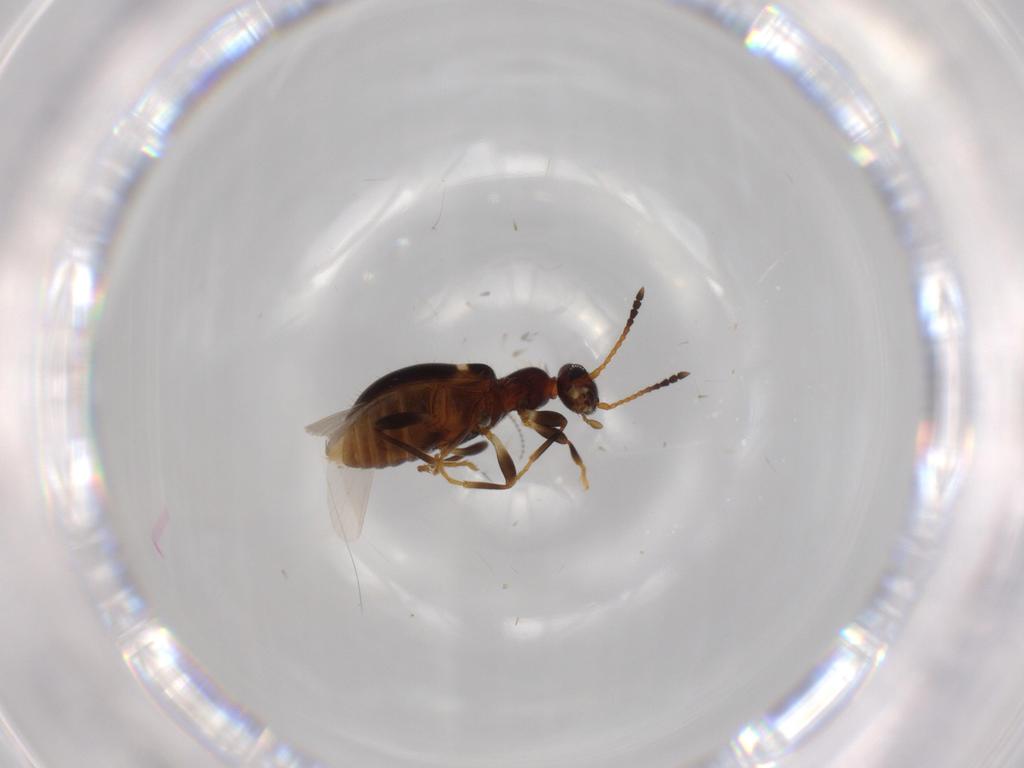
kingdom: Animalia
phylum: Arthropoda
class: Insecta
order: Coleoptera
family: Anthicidae
